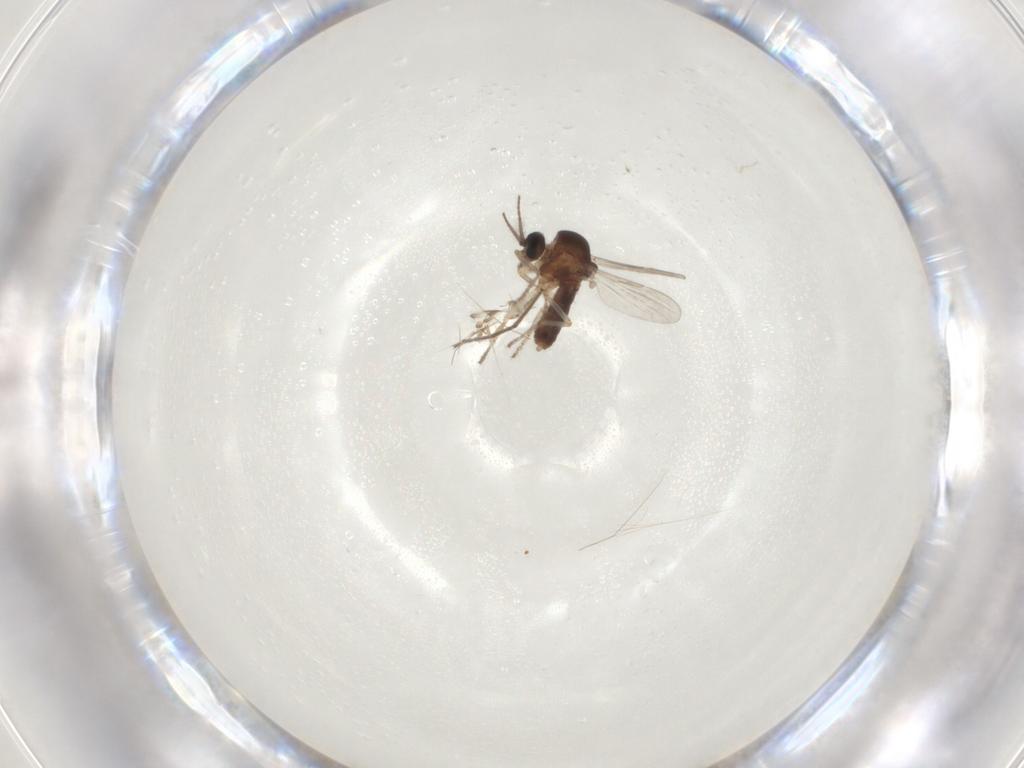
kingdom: Animalia
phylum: Arthropoda
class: Insecta
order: Diptera
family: Ceratopogonidae
